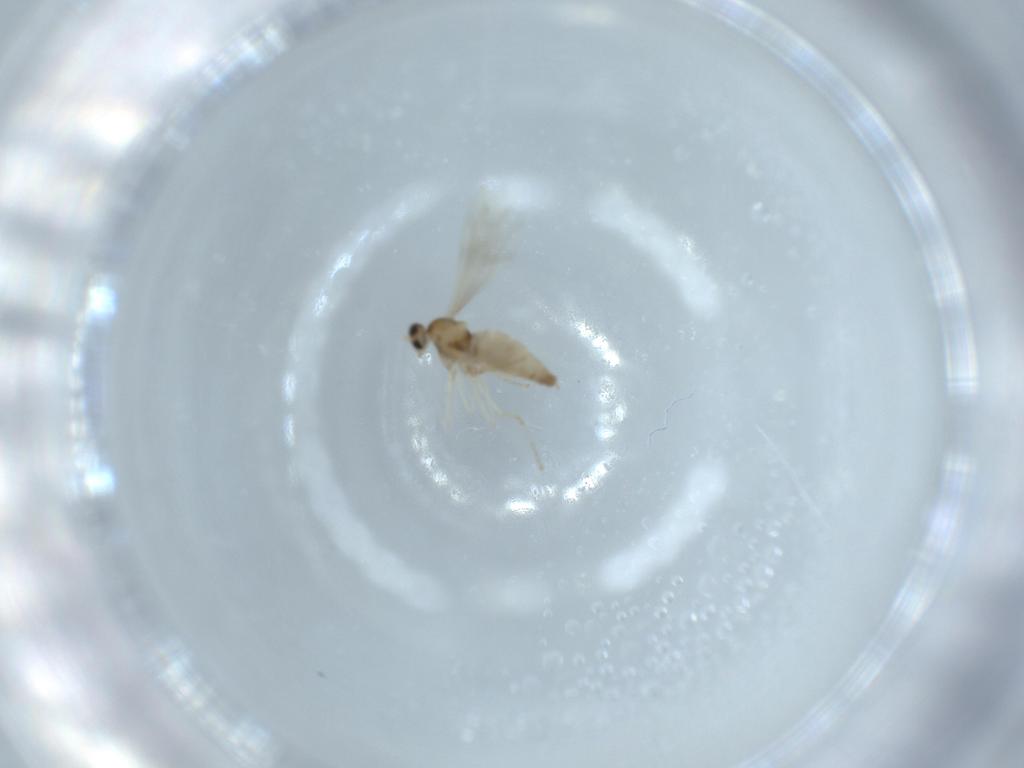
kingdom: Animalia
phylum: Arthropoda
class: Insecta
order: Diptera
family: Cecidomyiidae
